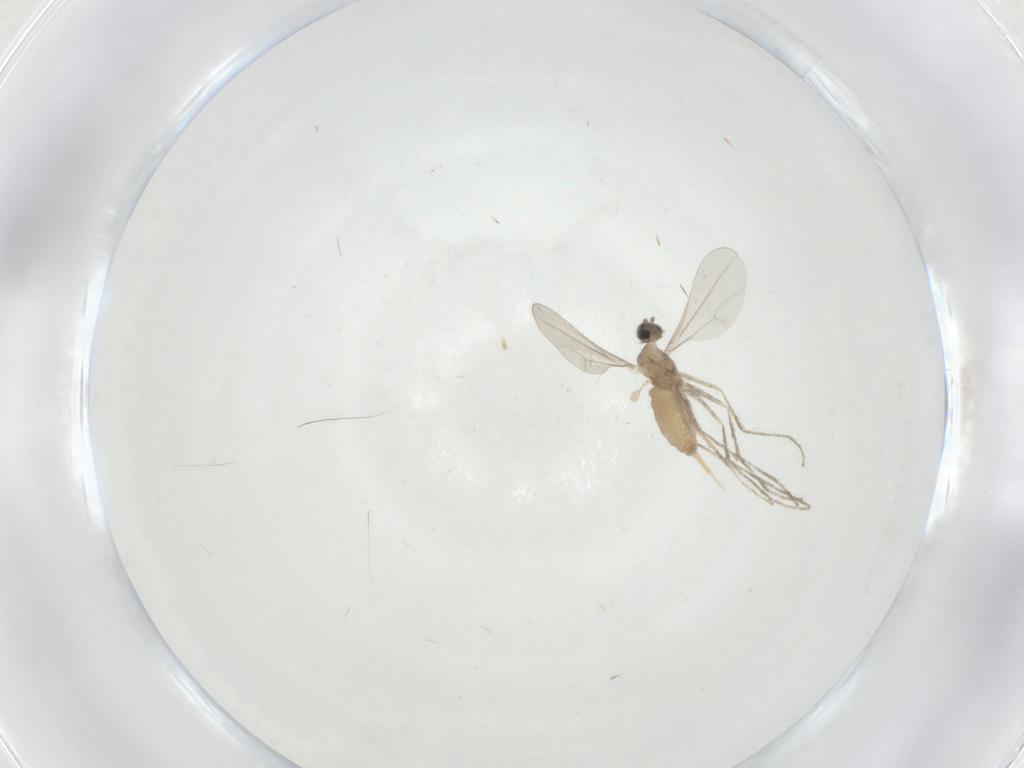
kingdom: Animalia
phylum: Arthropoda
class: Insecta
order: Diptera
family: Cecidomyiidae
